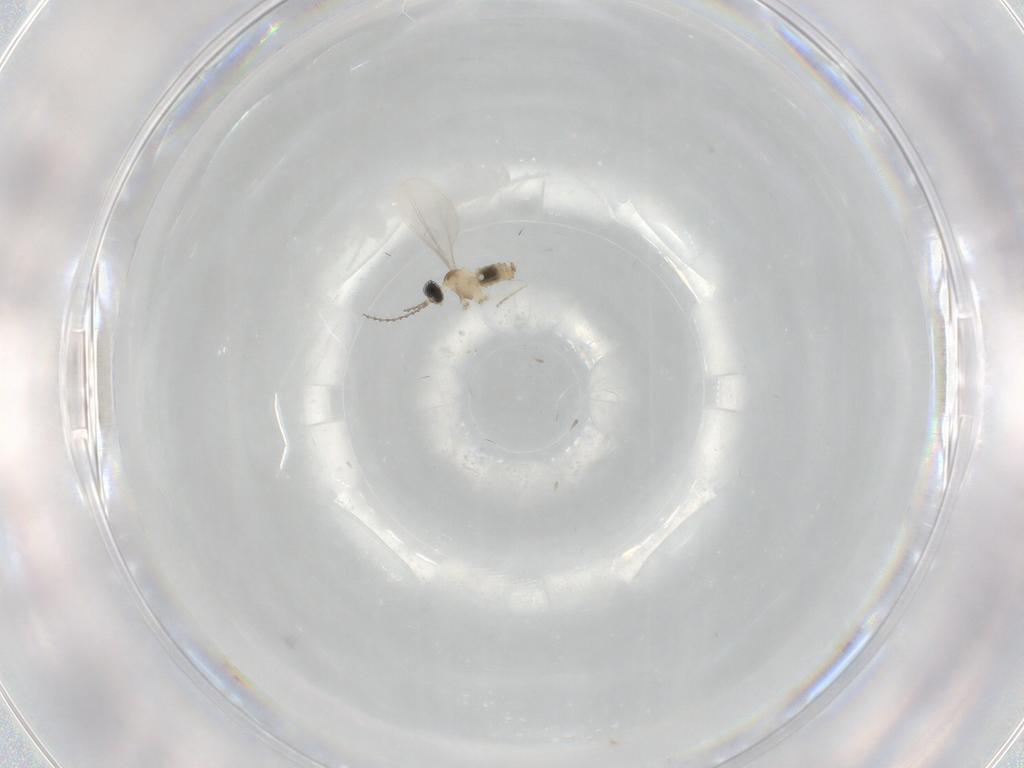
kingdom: Animalia
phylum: Arthropoda
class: Insecta
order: Diptera
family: Cecidomyiidae
